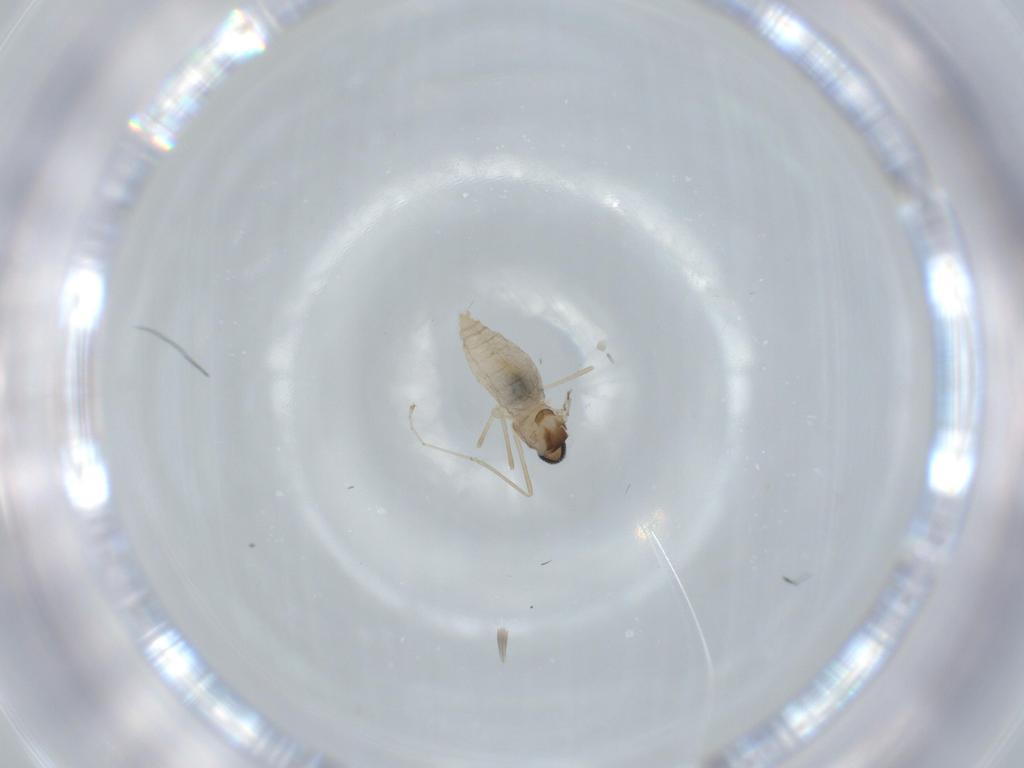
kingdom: Animalia
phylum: Arthropoda
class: Insecta
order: Diptera
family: Cecidomyiidae
